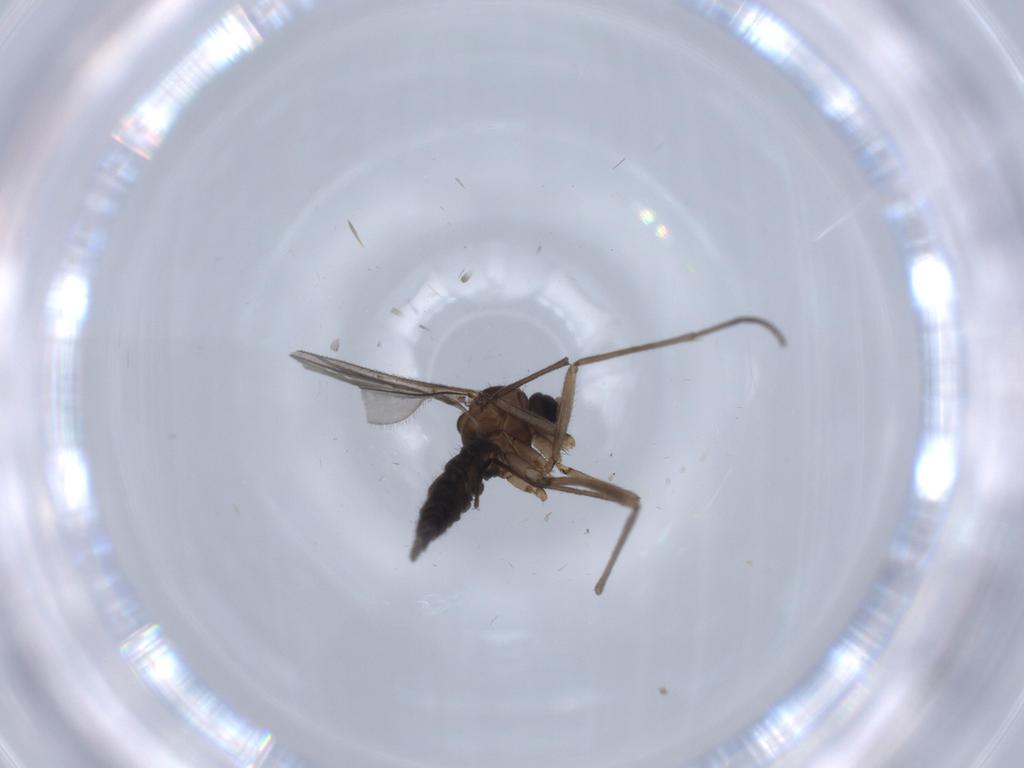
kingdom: Animalia
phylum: Arthropoda
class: Insecta
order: Diptera
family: Sciaridae
